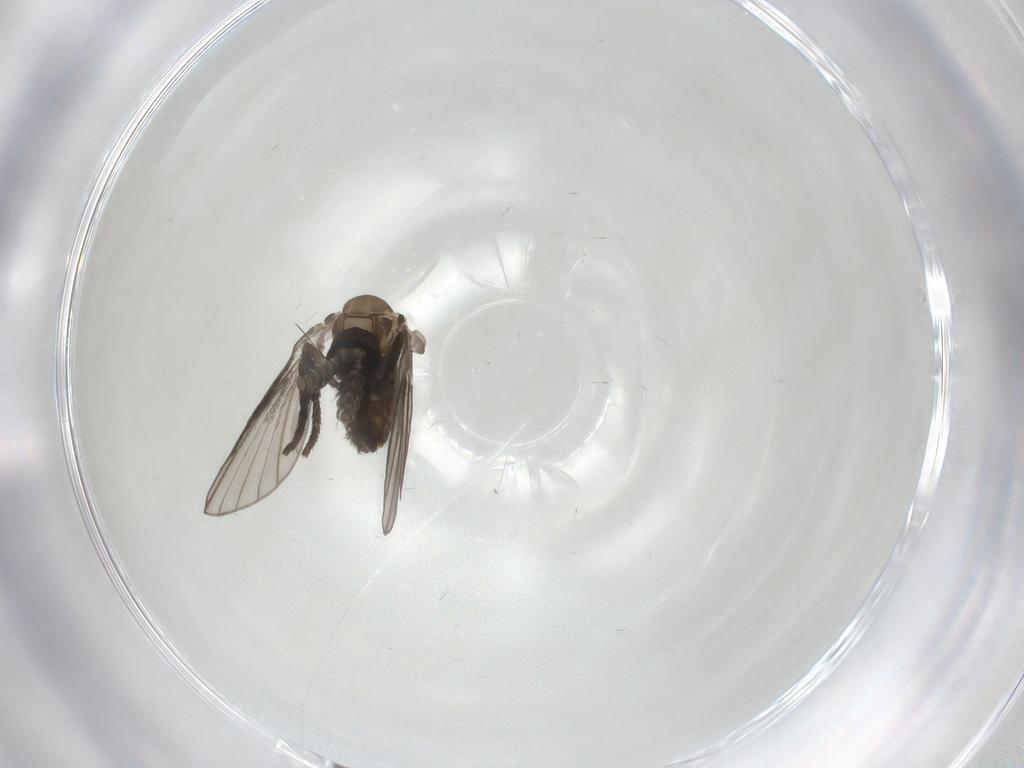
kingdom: Animalia
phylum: Arthropoda
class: Insecta
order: Diptera
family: Psychodidae
